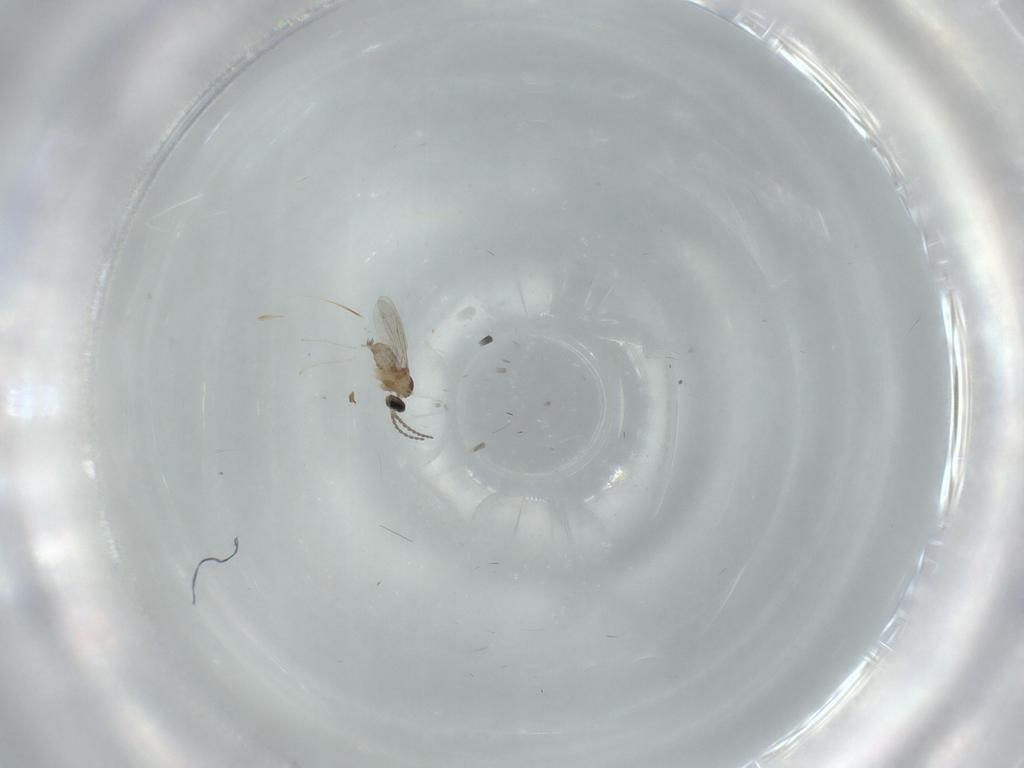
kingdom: Animalia
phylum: Arthropoda
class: Insecta
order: Diptera
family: Cecidomyiidae
